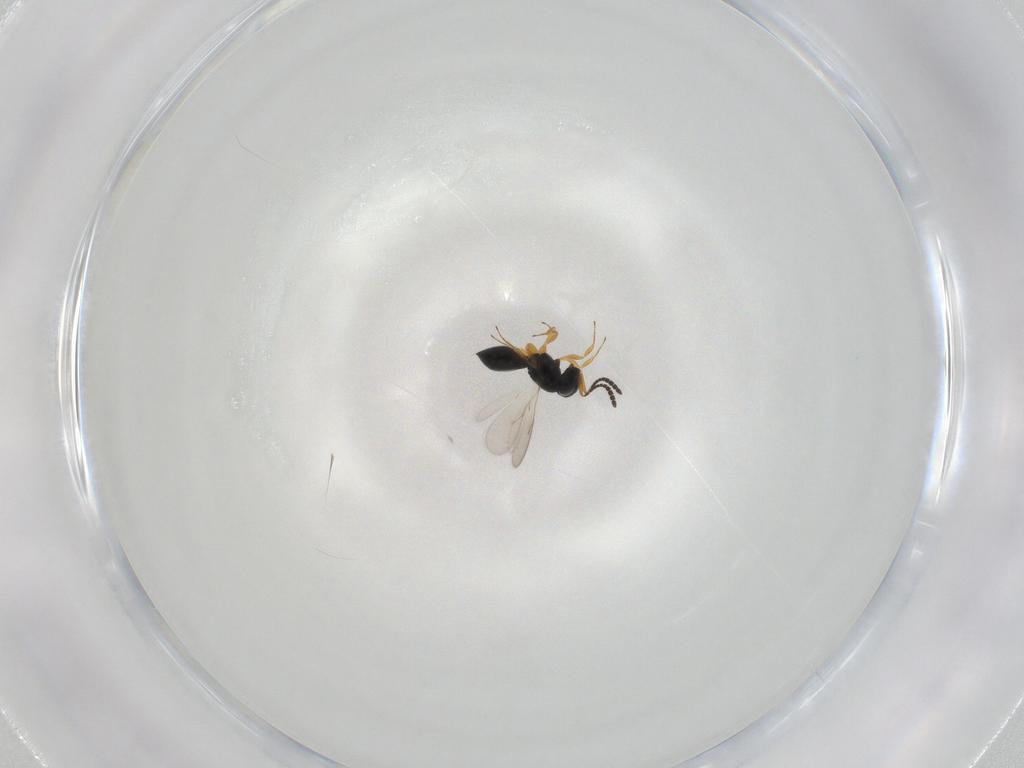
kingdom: Animalia
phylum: Arthropoda
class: Insecta
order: Hymenoptera
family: Scelionidae
